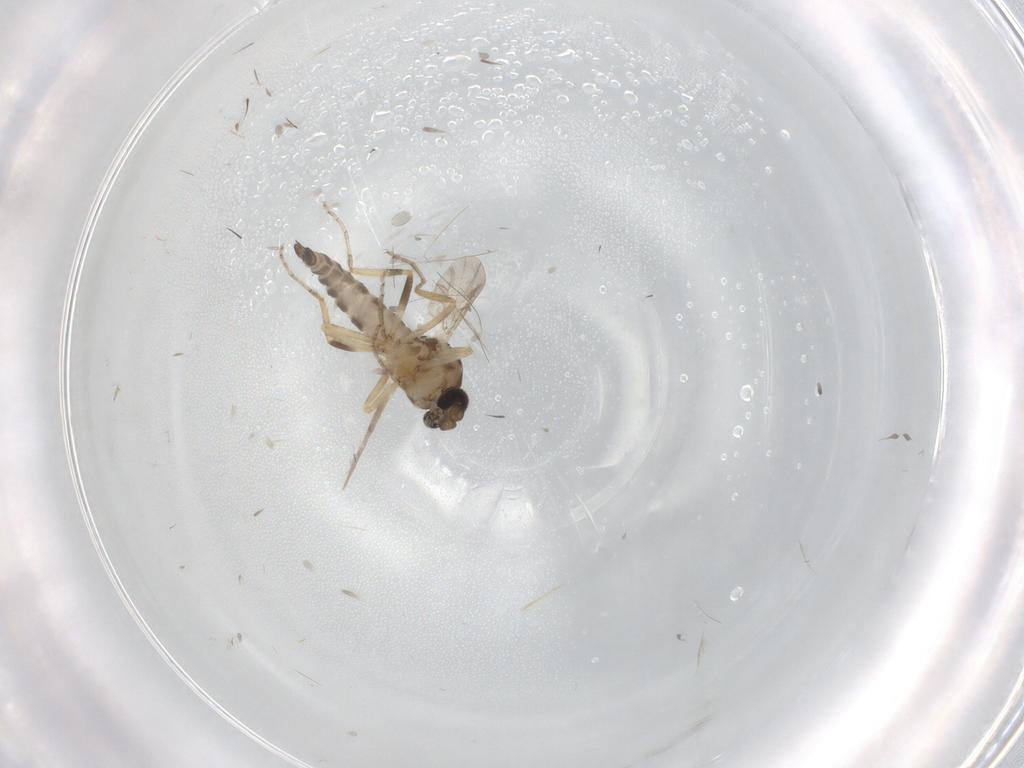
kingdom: Animalia
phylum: Arthropoda
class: Insecta
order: Diptera
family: Ceratopogonidae
